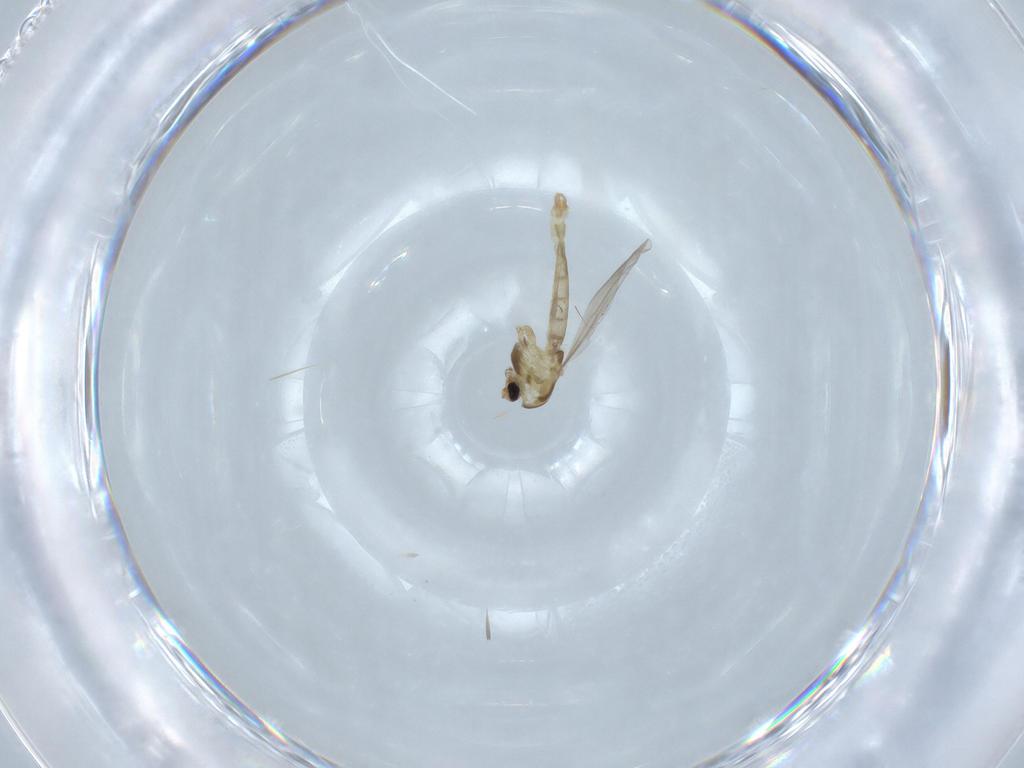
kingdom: Animalia
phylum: Arthropoda
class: Insecta
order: Diptera
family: Chironomidae
